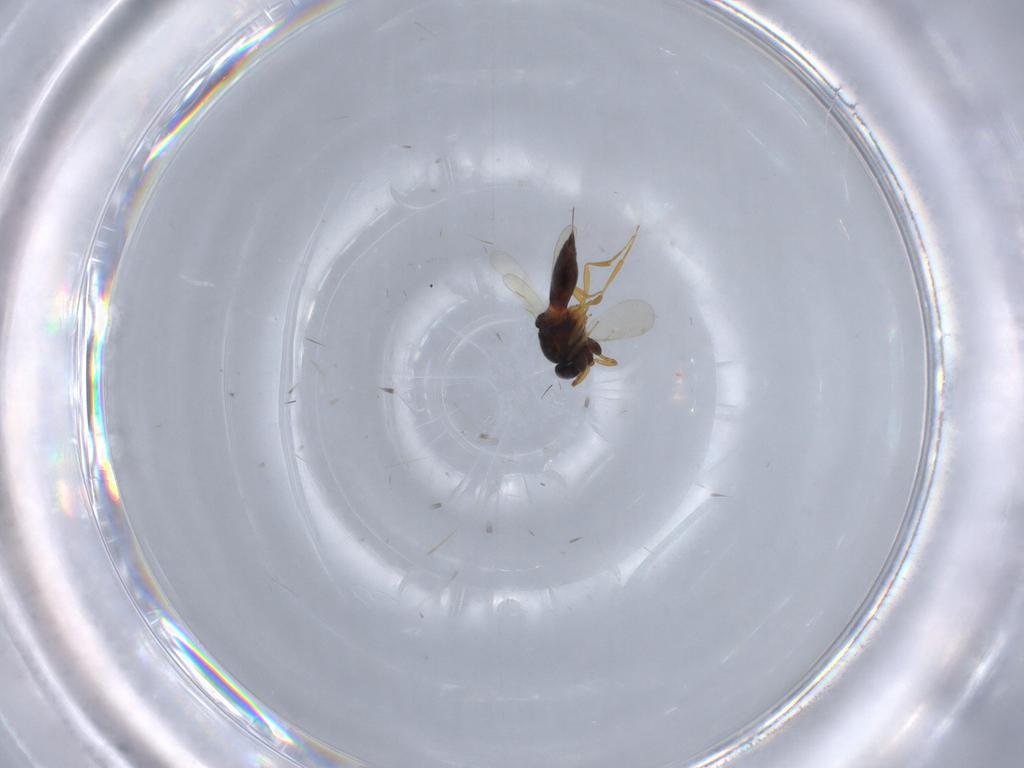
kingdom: Animalia
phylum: Arthropoda
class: Insecta
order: Hymenoptera
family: Scelionidae
